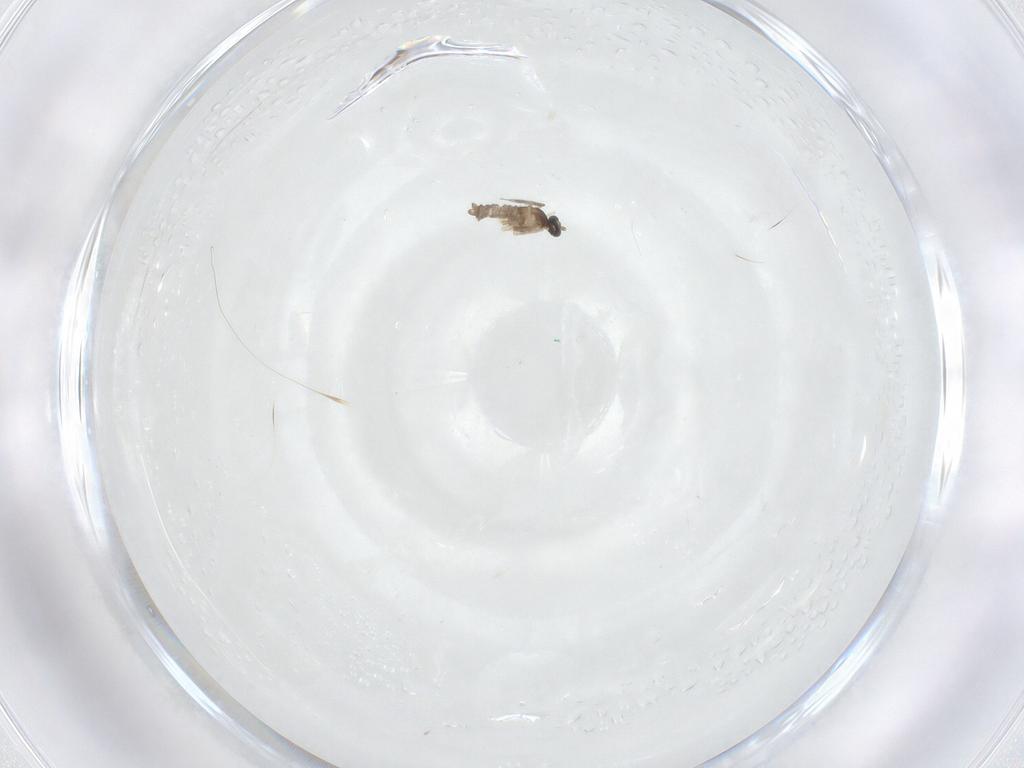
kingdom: Animalia
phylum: Arthropoda
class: Insecta
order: Diptera
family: Cecidomyiidae
